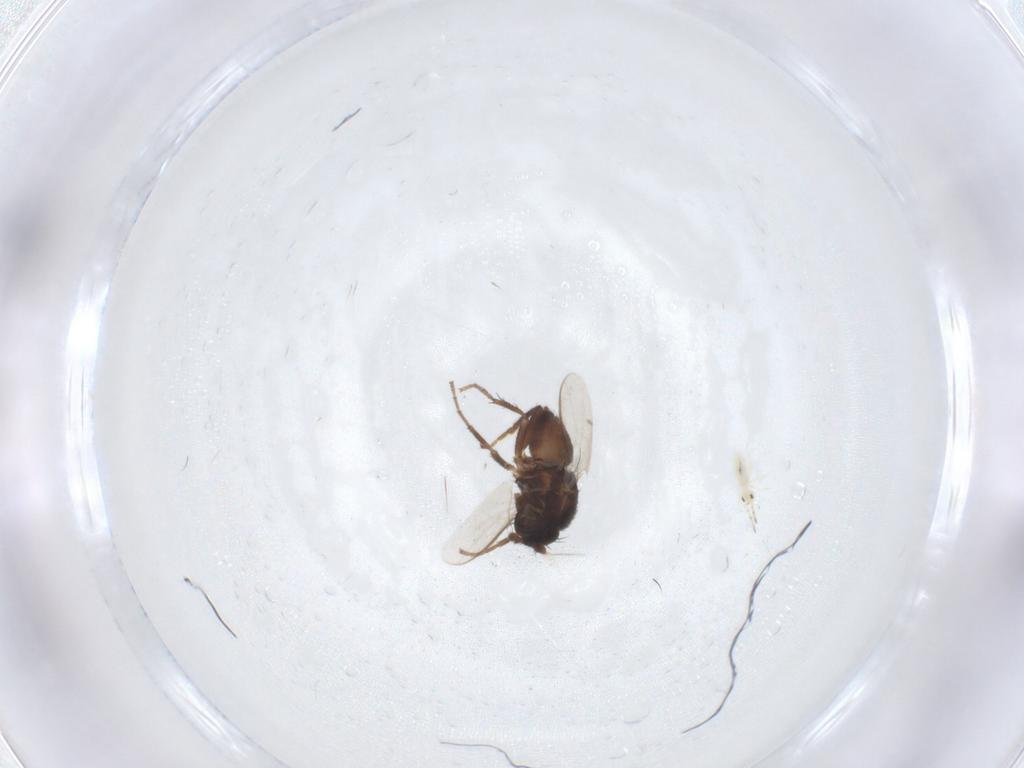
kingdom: Animalia
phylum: Arthropoda
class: Insecta
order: Diptera
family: Sphaeroceridae
